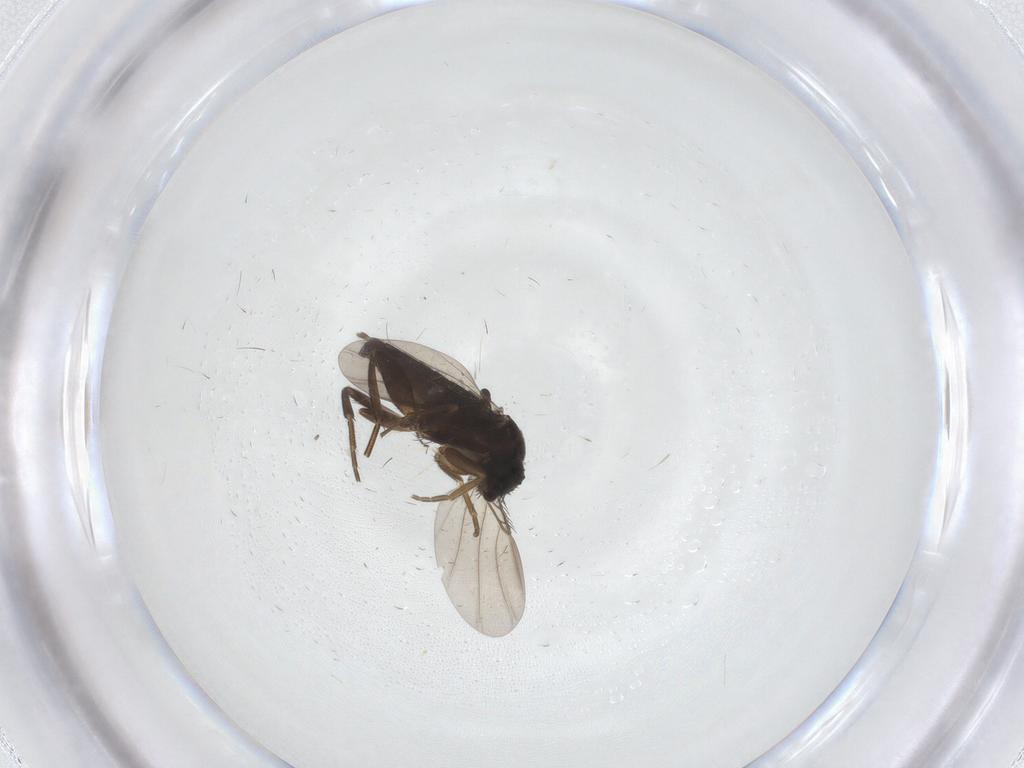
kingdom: Animalia
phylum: Arthropoda
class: Insecta
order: Diptera
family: Phoridae
